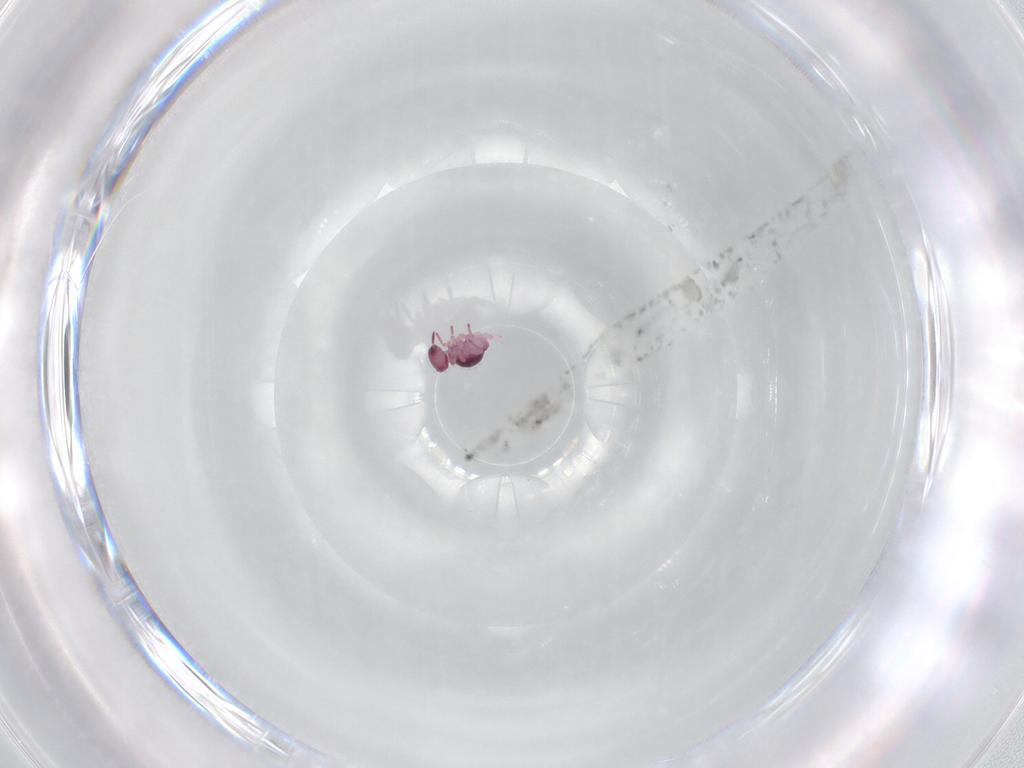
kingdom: Animalia
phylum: Arthropoda
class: Collembola
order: Symphypleona
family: Sminthurididae
